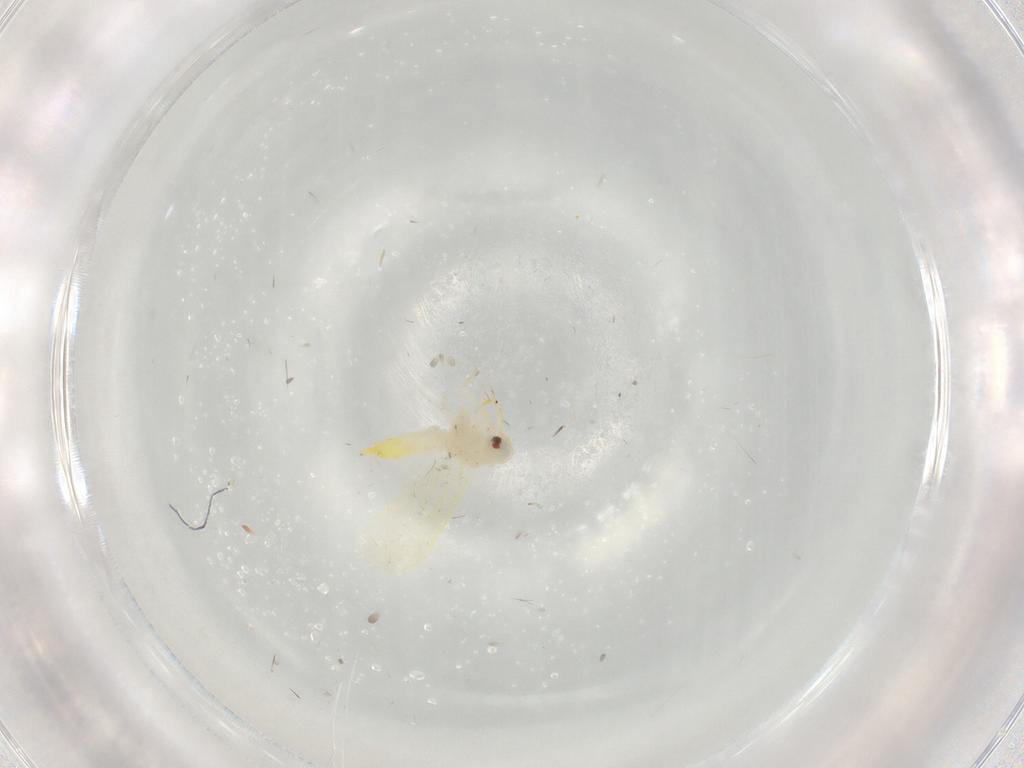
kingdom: Animalia
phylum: Arthropoda
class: Insecta
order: Hemiptera
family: Aleyrodidae
